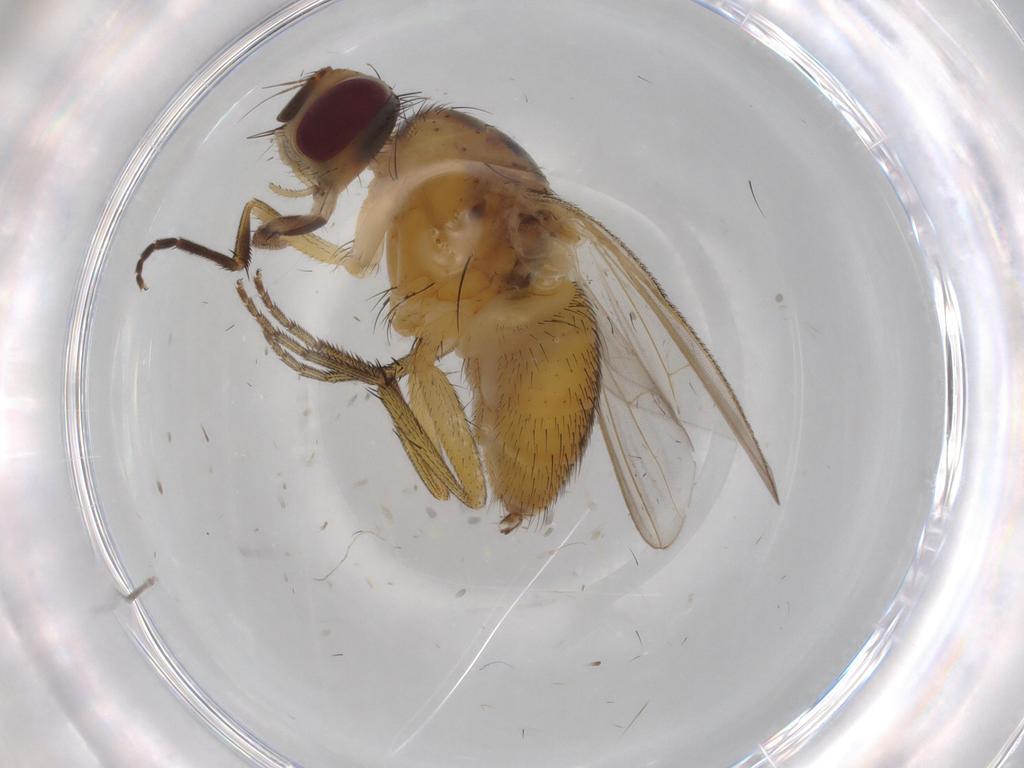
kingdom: Animalia
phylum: Arthropoda
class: Insecta
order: Diptera
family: Muscidae
